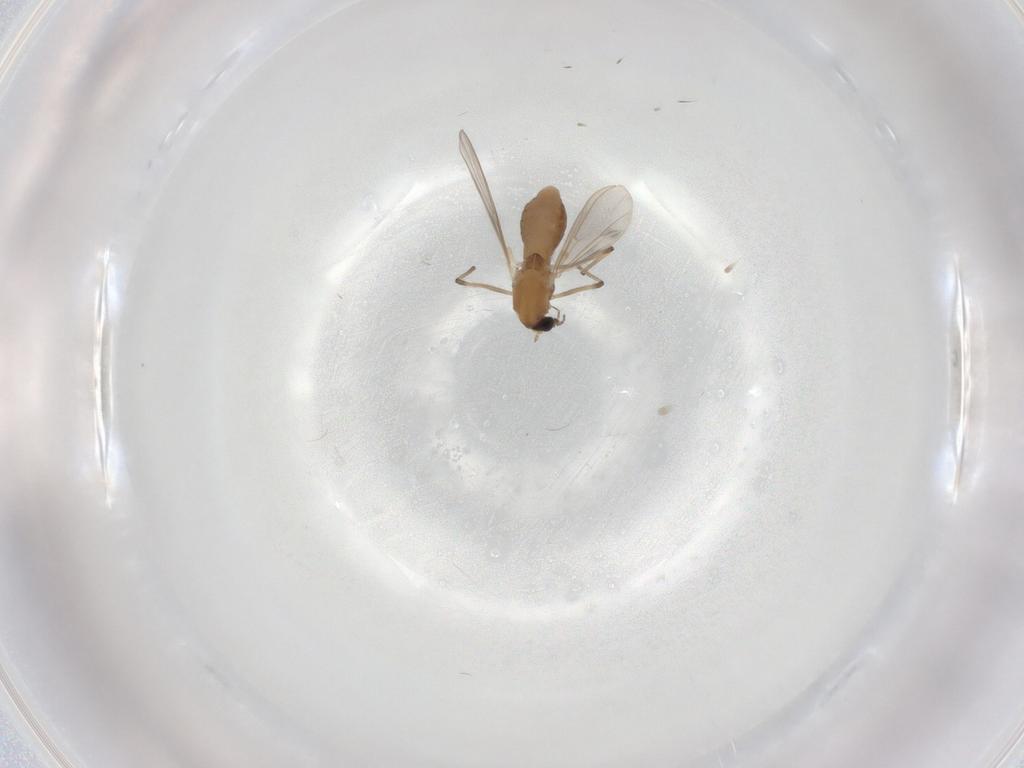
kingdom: Animalia
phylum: Arthropoda
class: Insecta
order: Diptera
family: Chironomidae
